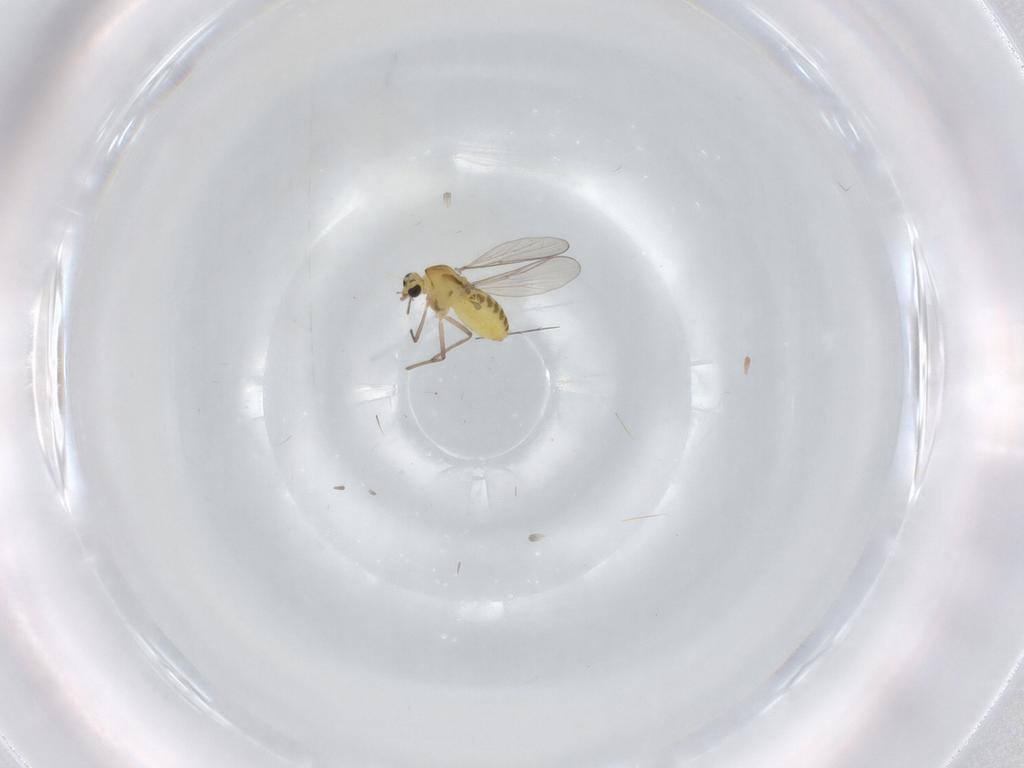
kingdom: Animalia
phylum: Arthropoda
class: Insecta
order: Diptera
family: Chironomidae
